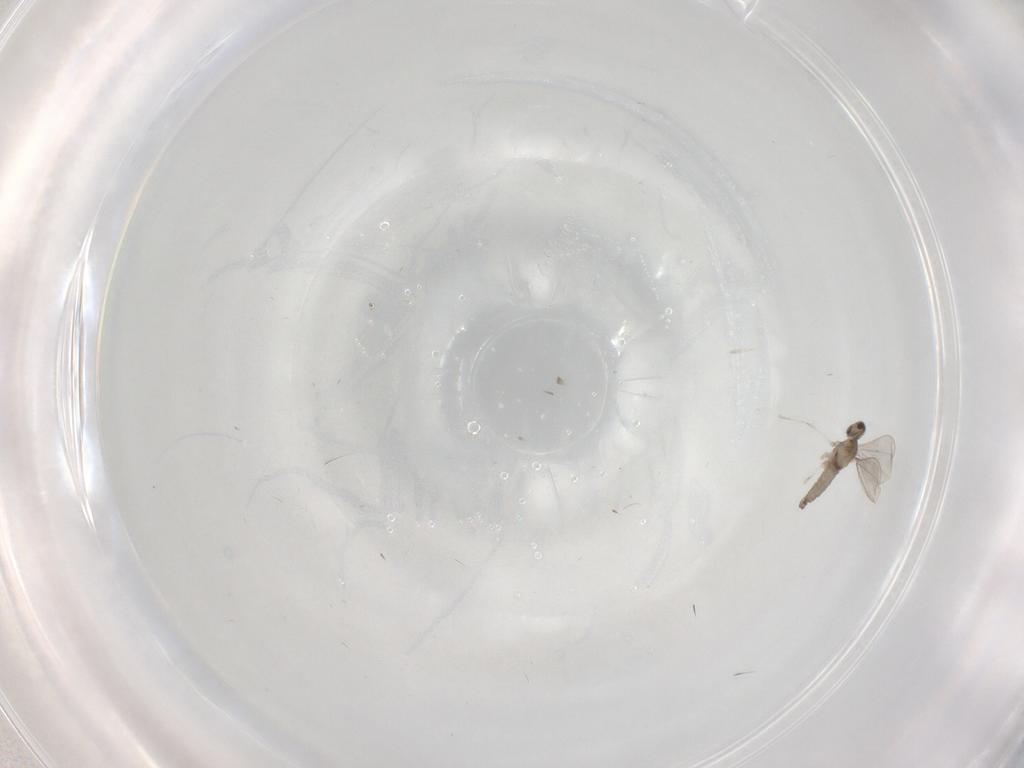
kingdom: Animalia
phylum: Arthropoda
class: Insecta
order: Diptera
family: Cecidomyiidae
